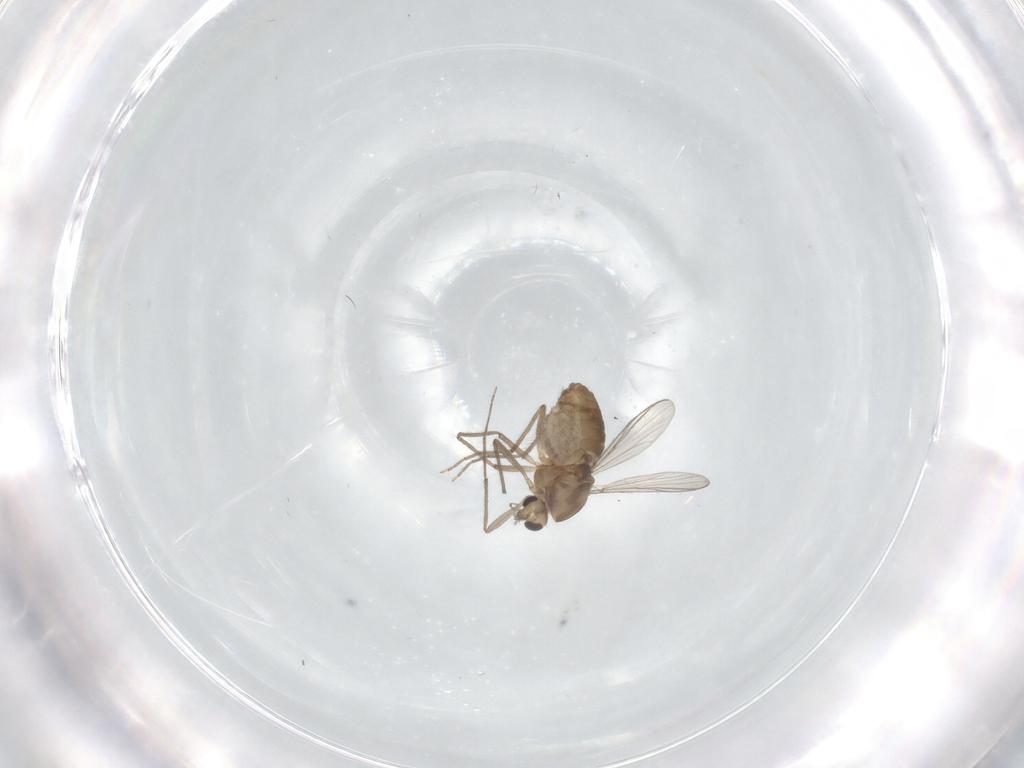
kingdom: Animalia
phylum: Arthropoda
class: Insecta
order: Diptera
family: Chironomidae
